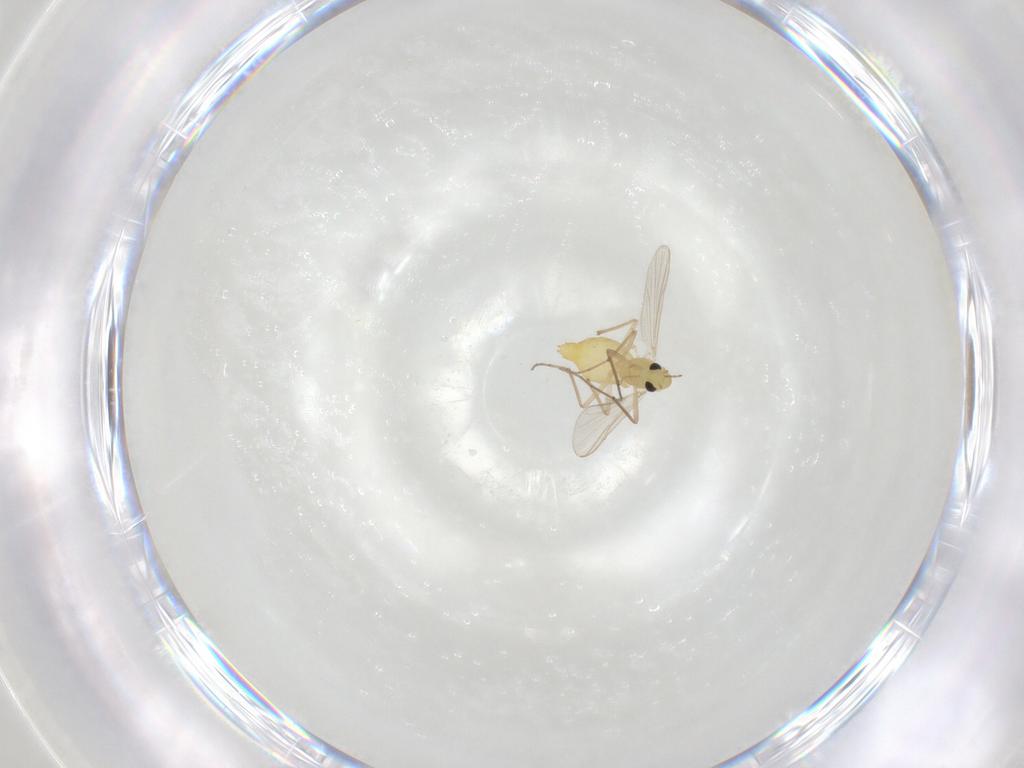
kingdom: Animalia
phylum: Arthropoda
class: Insecta
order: Diptera
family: Chironomidae
